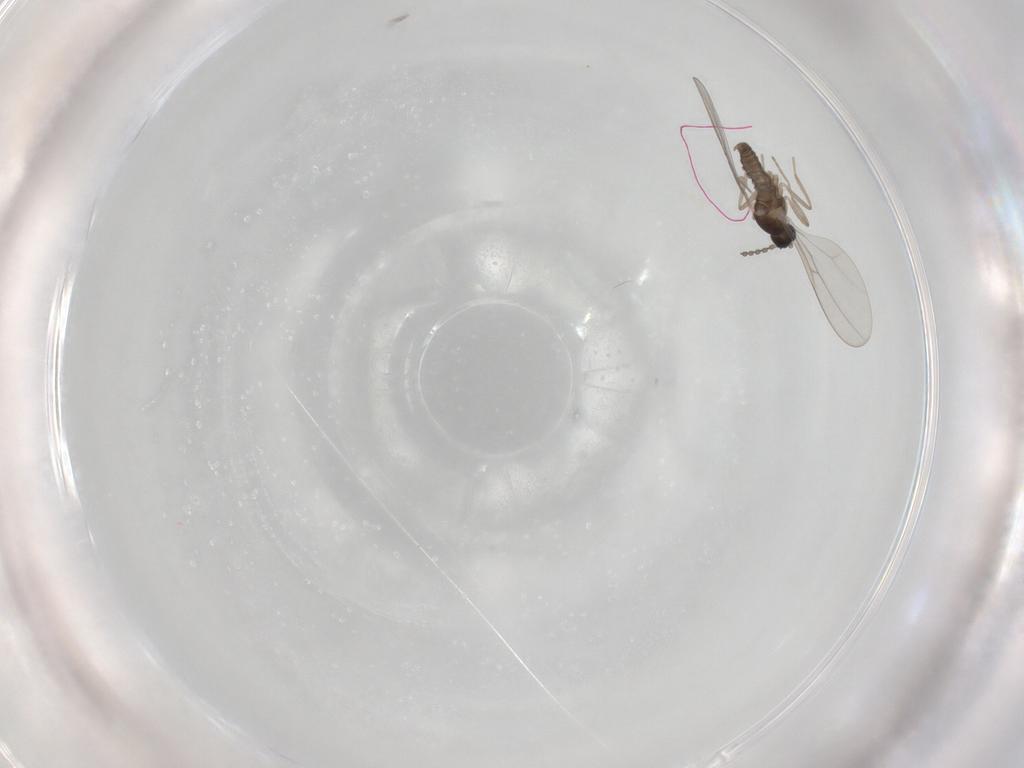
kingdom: Animalia
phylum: Arthropoda
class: Insecta
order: Diptera
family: Cecidomyiidae
